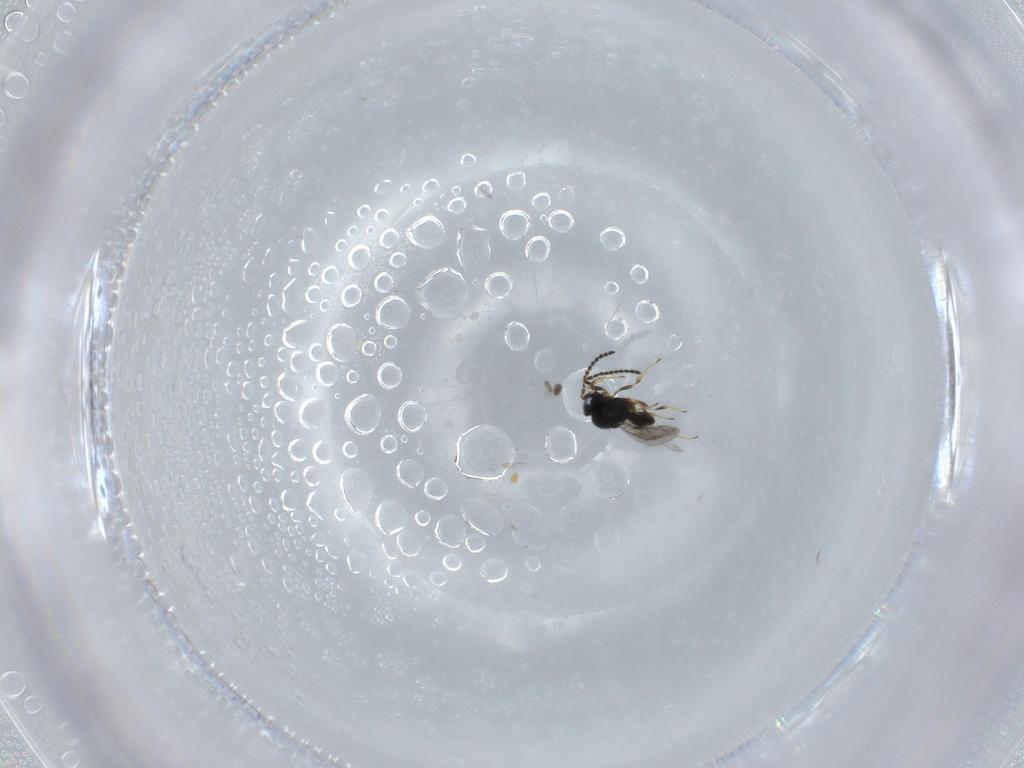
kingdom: Animalia
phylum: Arthropoda
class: Insecta
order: Hymenoptera
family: Scelionidae
